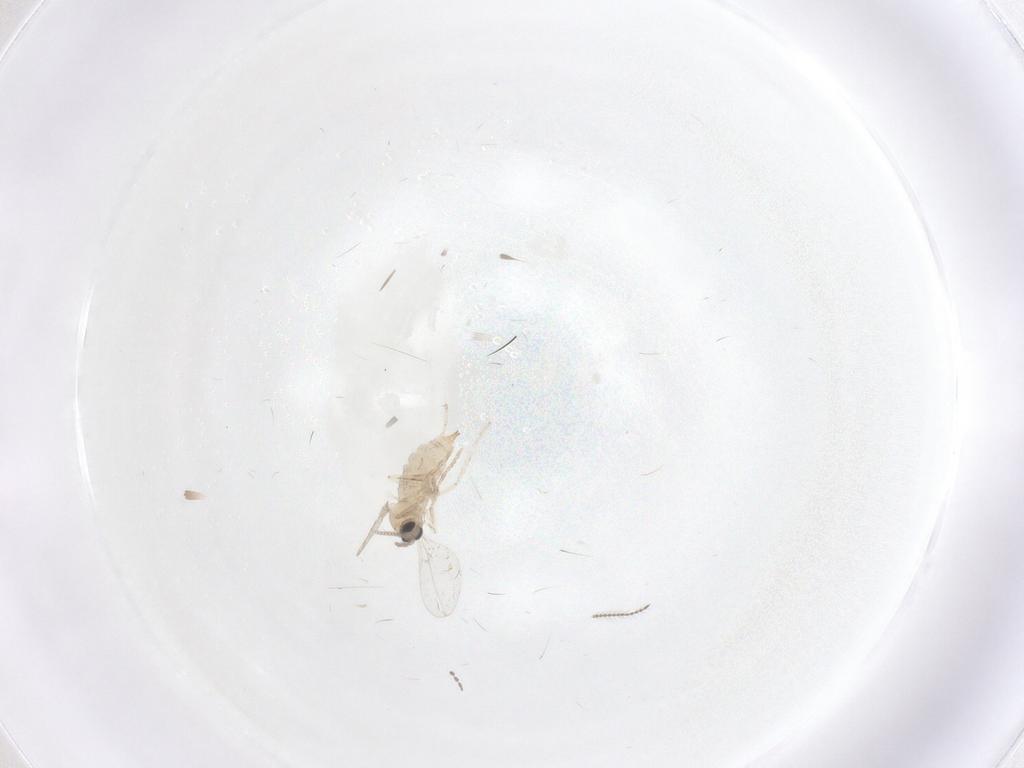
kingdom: Animalia
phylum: Arthropoda
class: Insecta
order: Diptera
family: Cecidomyiidae
